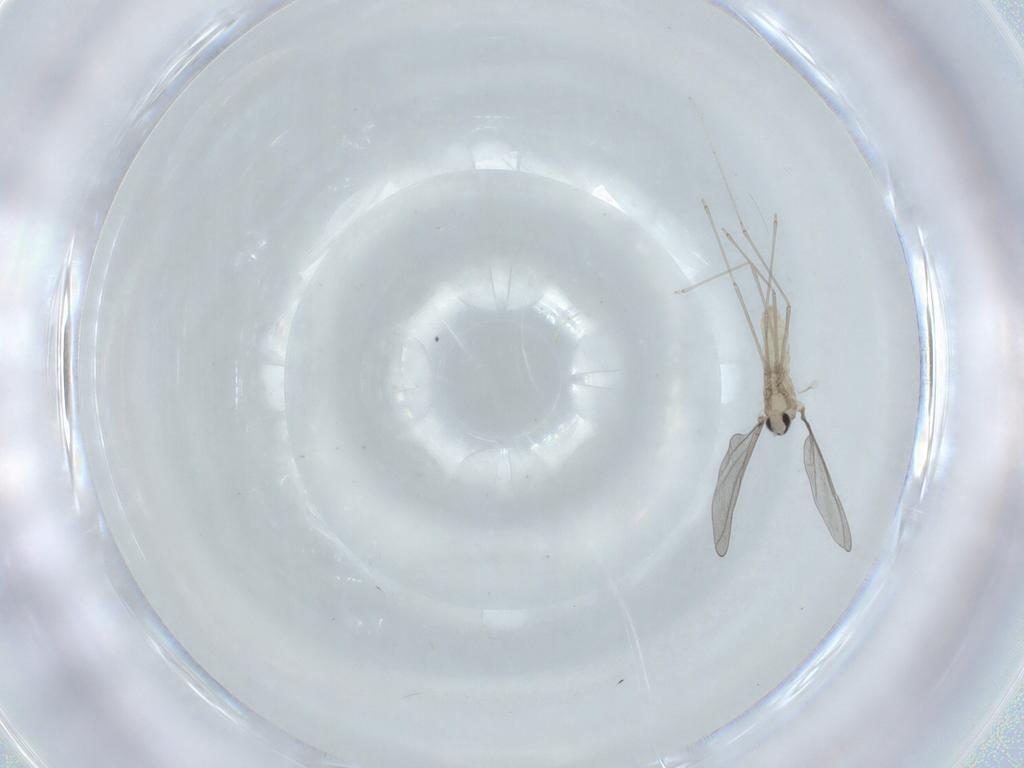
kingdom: Animalia
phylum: Arthropoda
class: Insecta
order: Diptera
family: Cecidomyiidae
